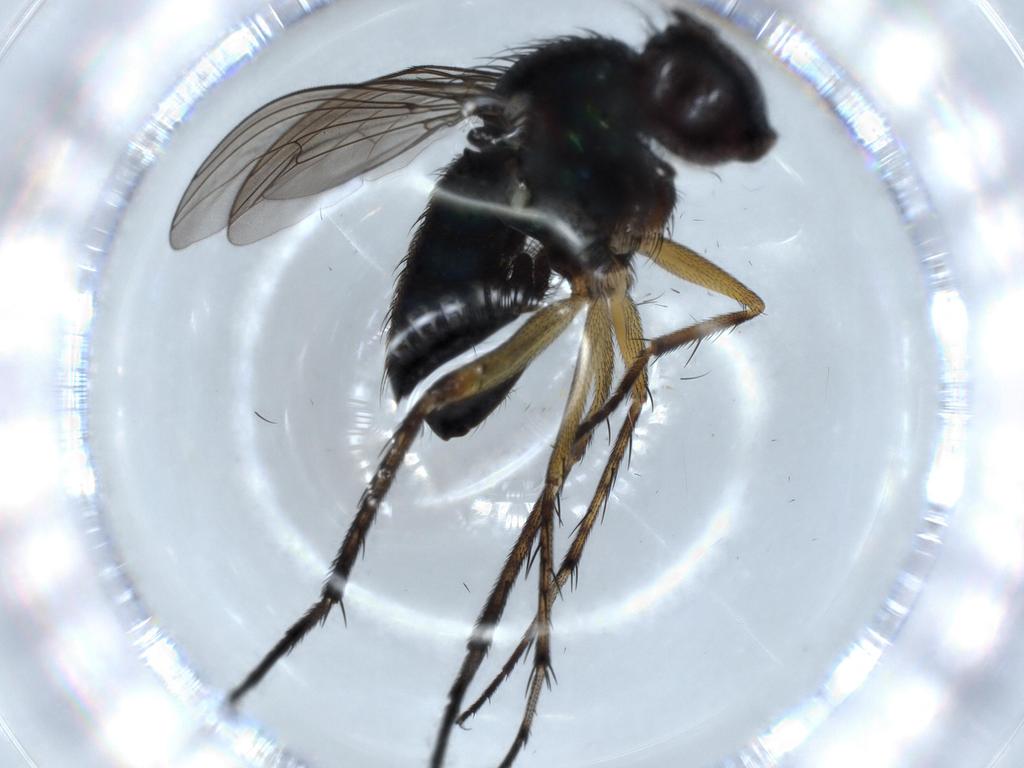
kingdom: Animalia
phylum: Arthropoda
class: Insecta
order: Diptera
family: Dolichopodidae
